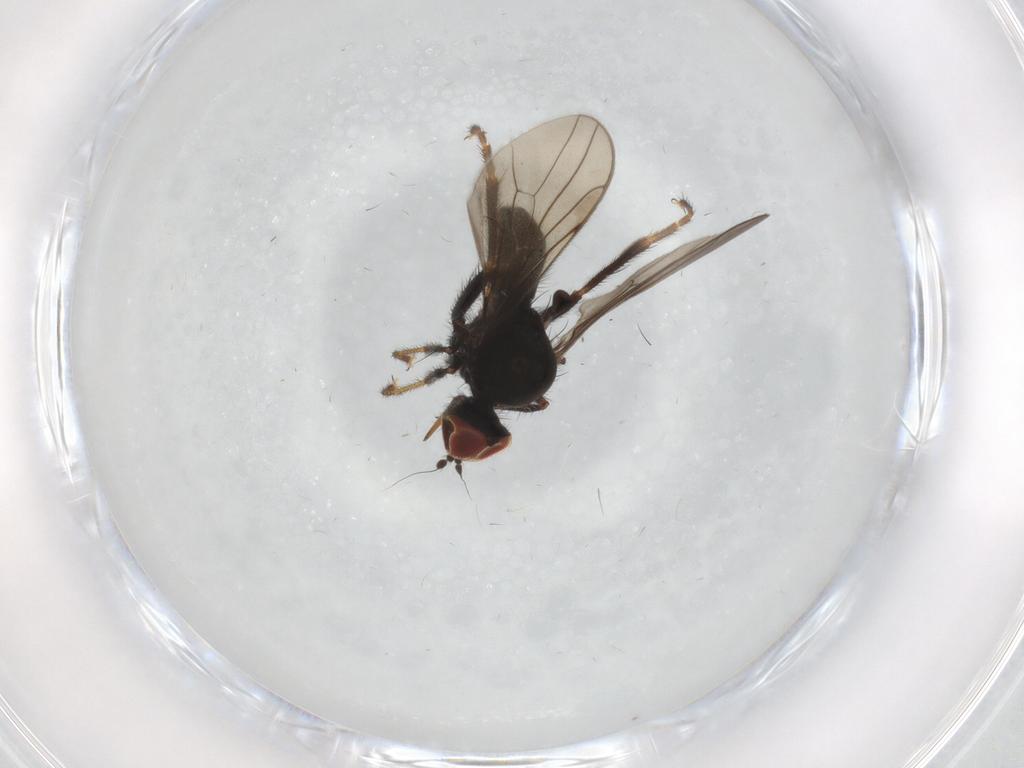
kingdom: Animalia
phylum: Arthropoda
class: Insecta
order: Diptera
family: Hybotidae
